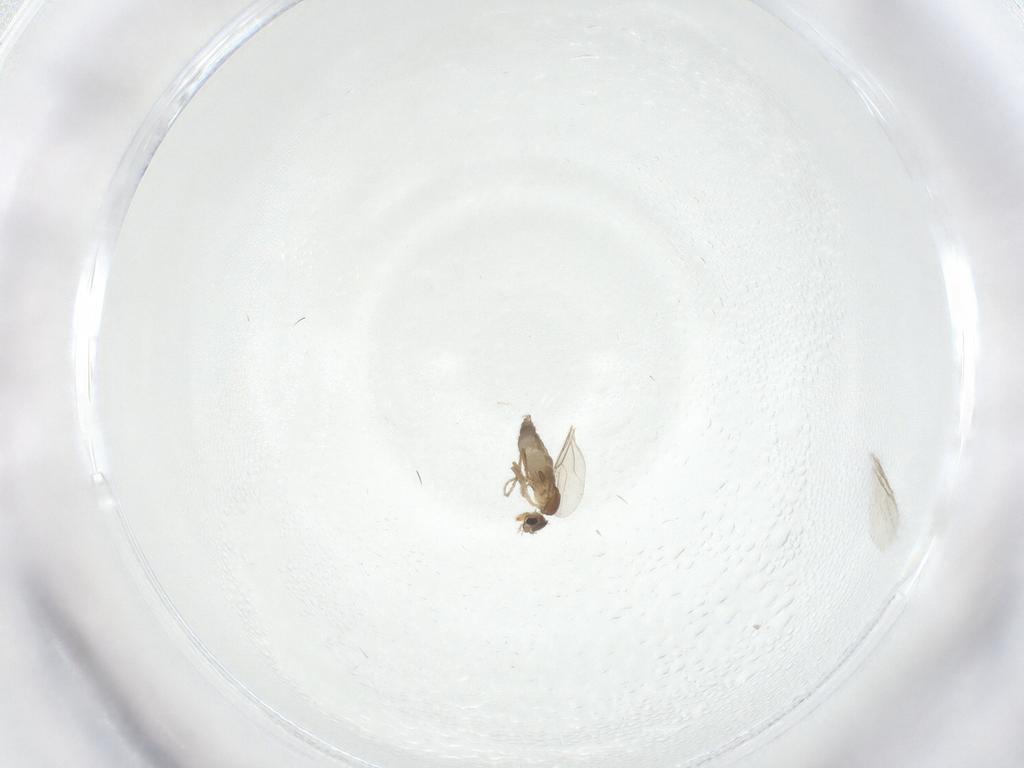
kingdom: Animalia
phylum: Arthropoda
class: Insecta
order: Diptera
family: Phoridae
